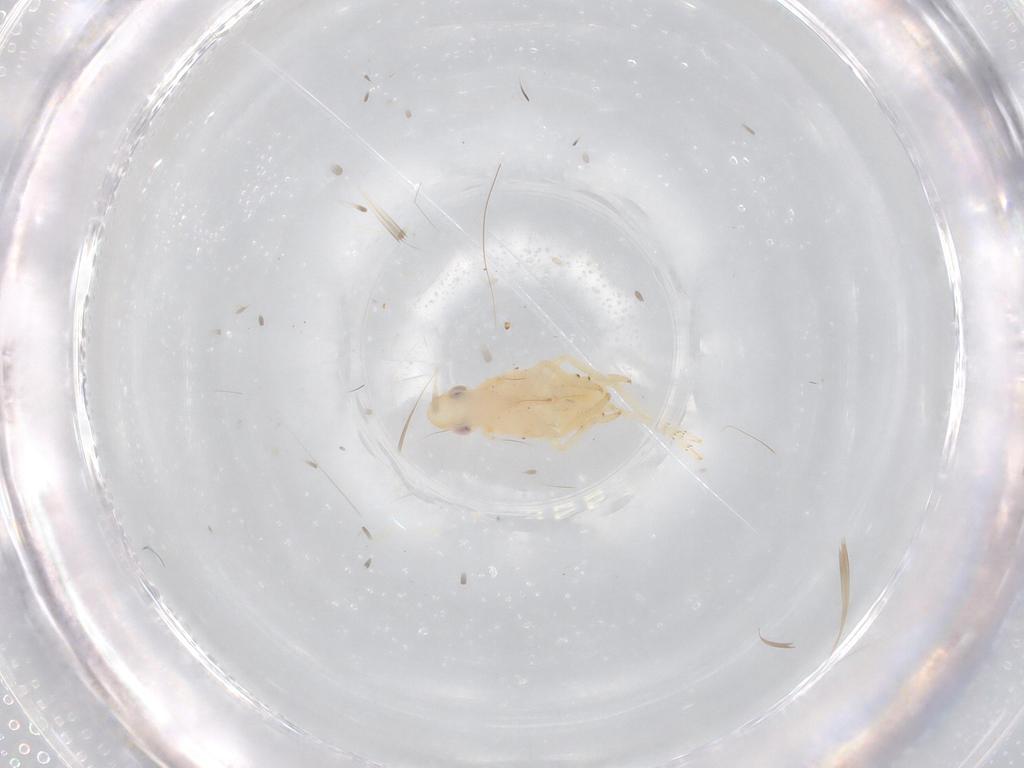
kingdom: Animalia
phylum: Arthropoda
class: Insecta
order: Hemiptera
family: Tropiduchidae
